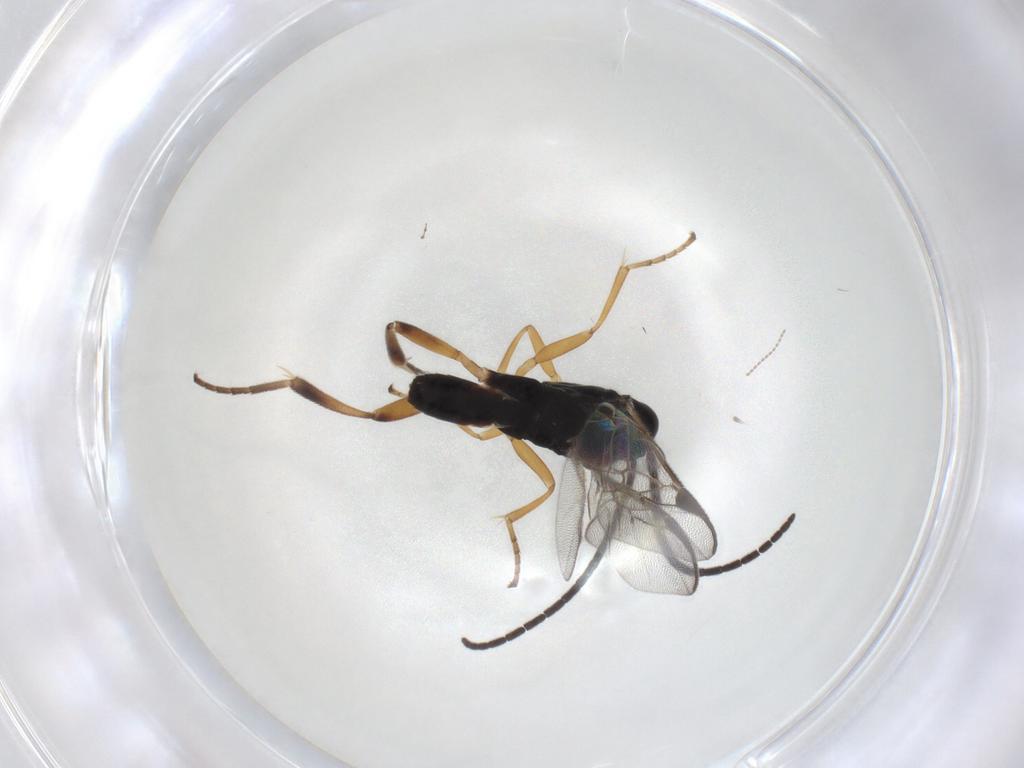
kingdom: Animalia
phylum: Arthropoda
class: Insecta
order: Hymenoptera
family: Braconidae
